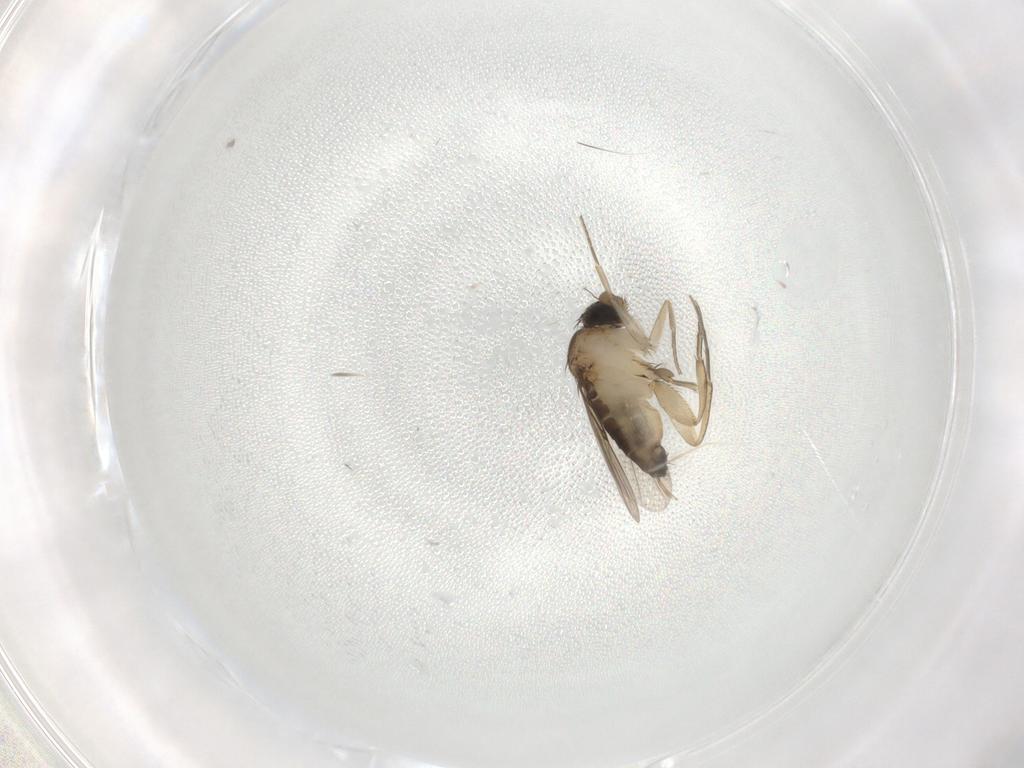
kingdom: Animalia
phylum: Arthropoda
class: Insecta
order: Diptera
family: Phoridae
